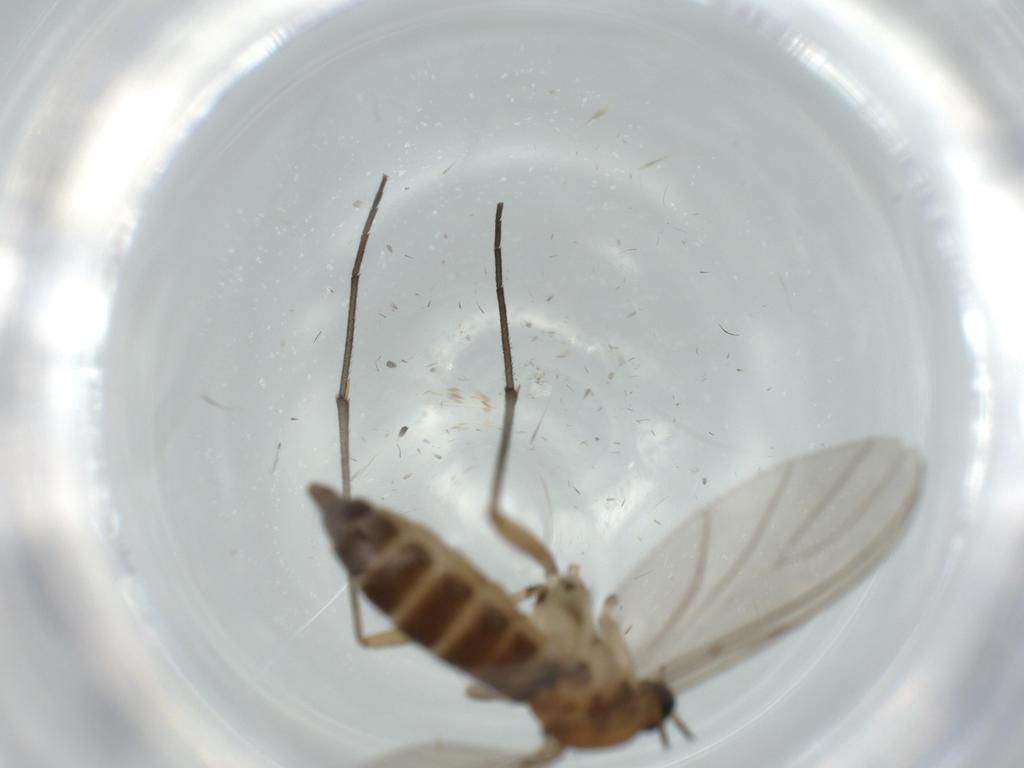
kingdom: Animalia
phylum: Arthropoda
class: Insecta
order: Diptera
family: Sciaridae
